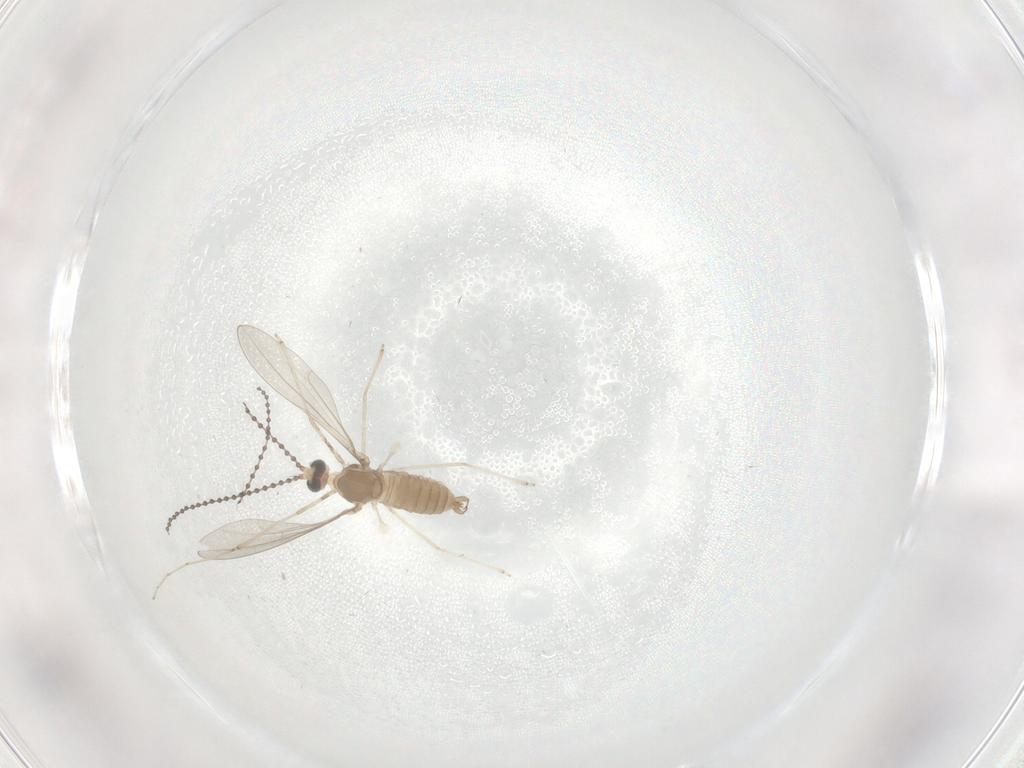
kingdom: Animalia
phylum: Arthropoda
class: Insecta
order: Diptera
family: Cecidomyiidae
